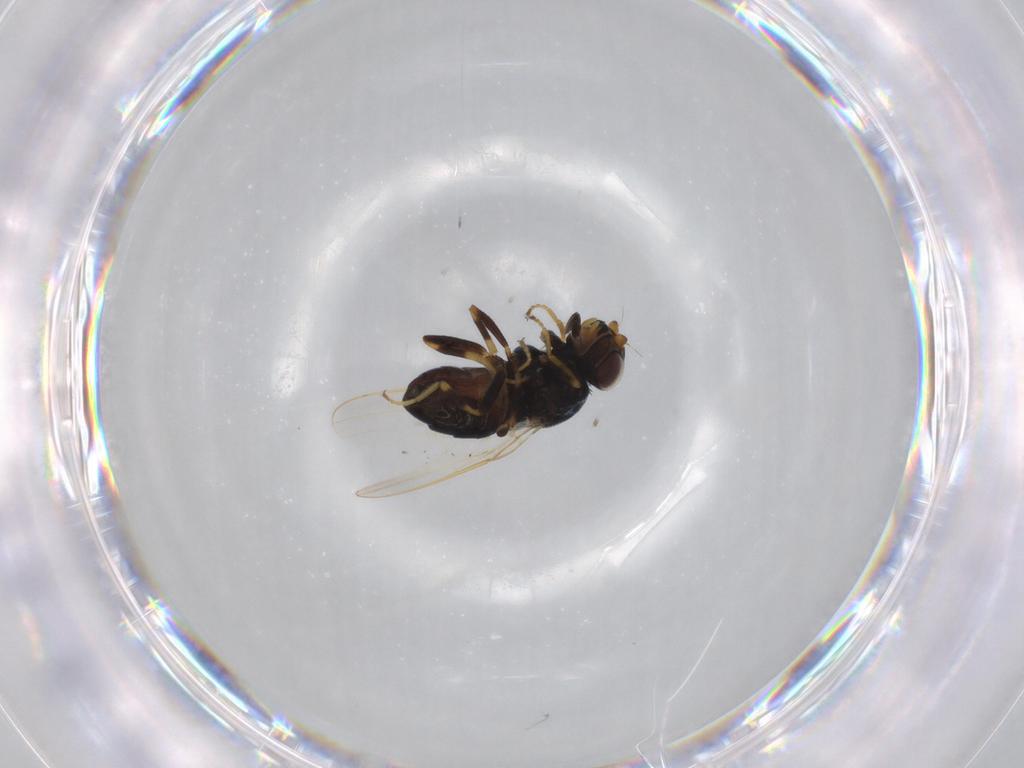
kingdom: Animalia
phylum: Arthropoda
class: Insecta
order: Diptera
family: Chloropidae
